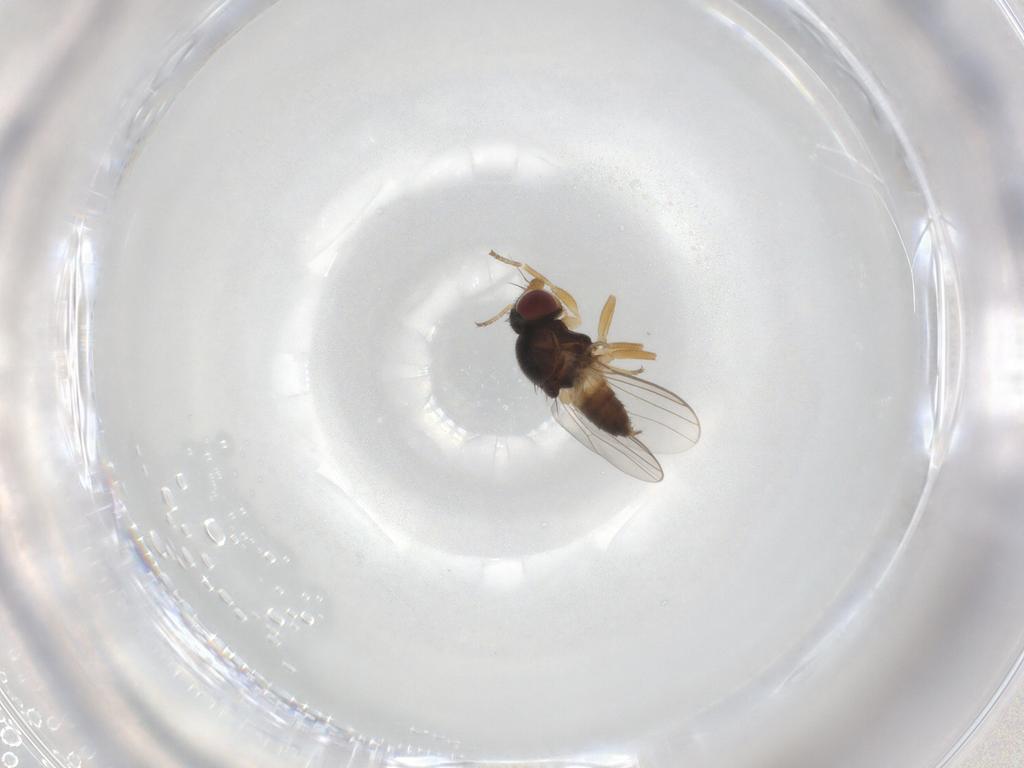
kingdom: Animalia
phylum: Arthropoda
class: Insecta
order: Diptera
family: Chloropidae
